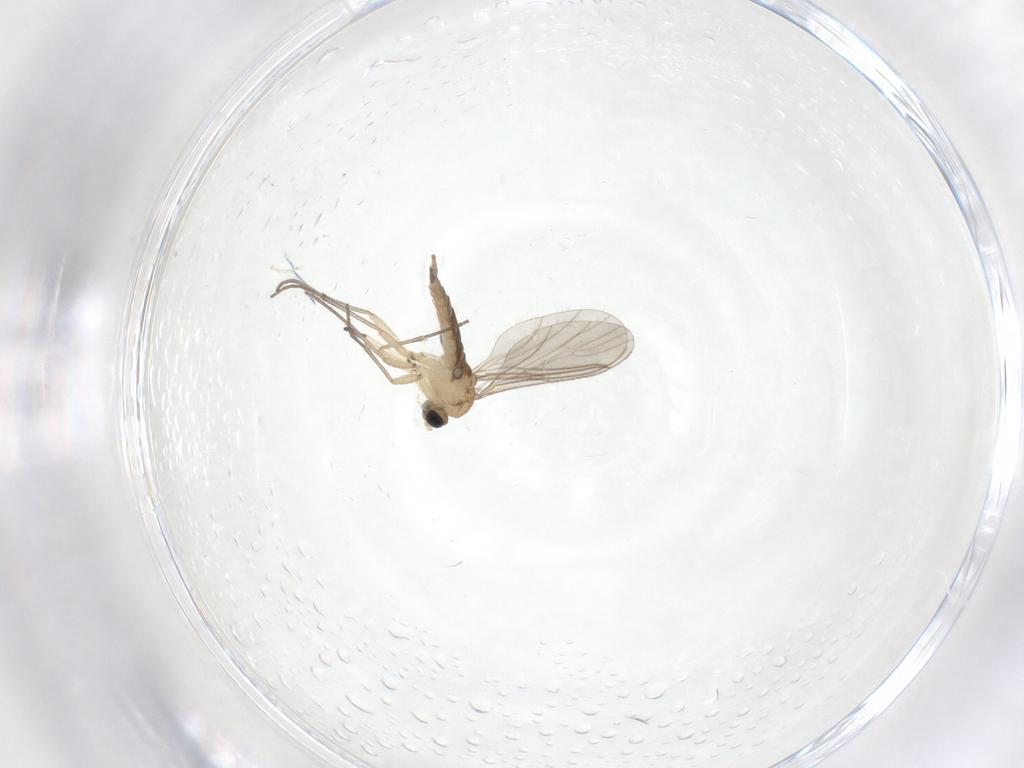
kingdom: Animalia
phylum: Arthropoda
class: Insecta
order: Diptera
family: Sciaridae
